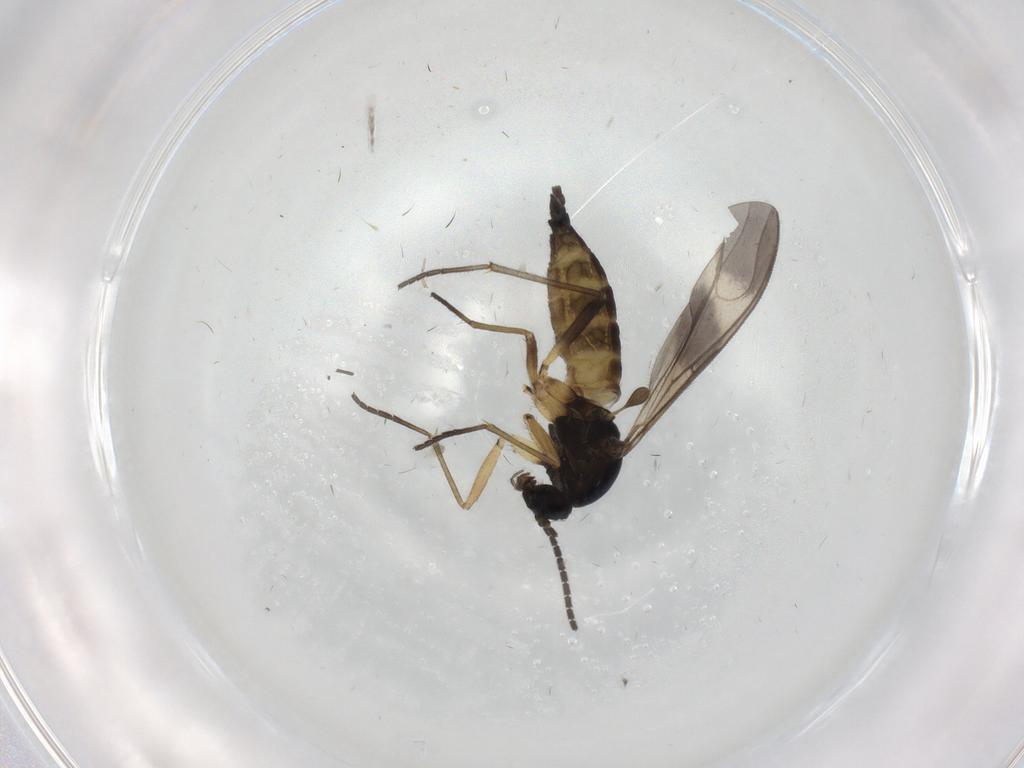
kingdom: Animalia
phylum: Arthropoda
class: Insecta
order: Diptera
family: Sciaridae
